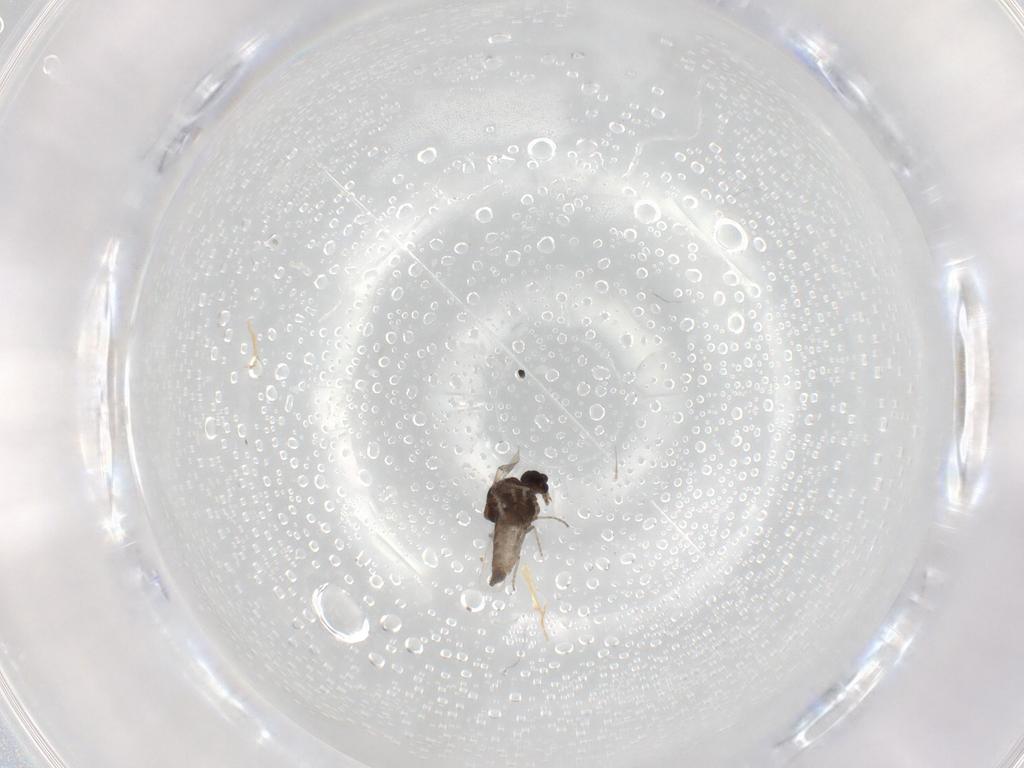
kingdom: Animalia
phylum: Arthropoda
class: Insecta
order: Diptera
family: Ceratopogonidae
